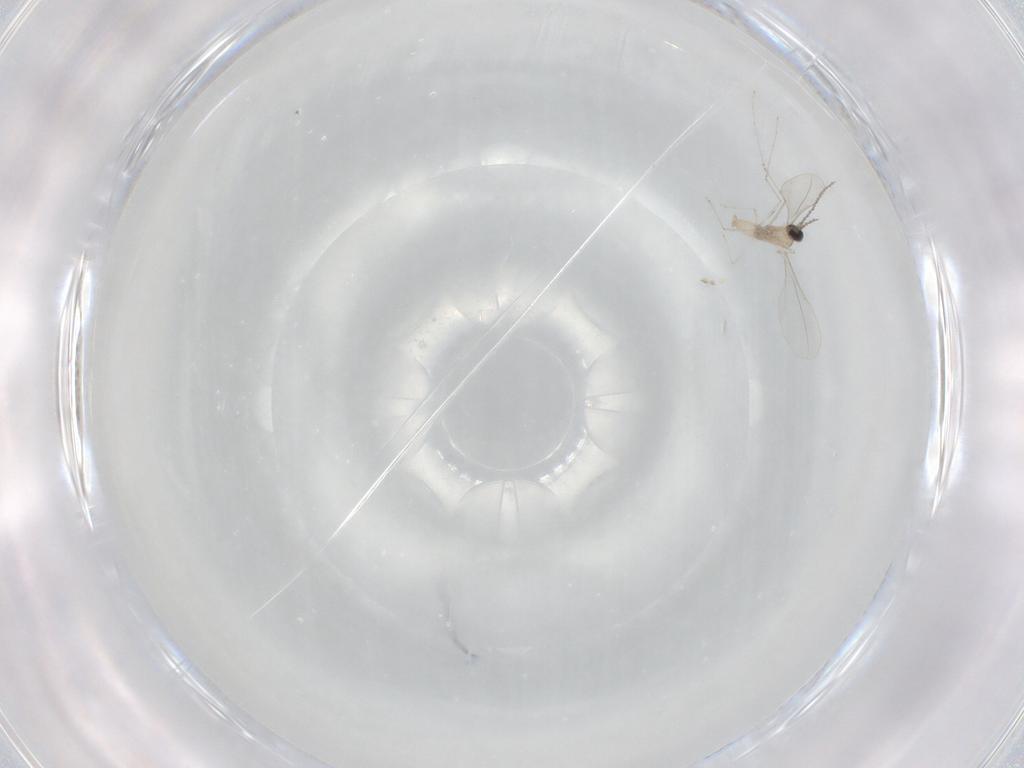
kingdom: Animalia
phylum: Arthropoda
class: Insecta
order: Diptera
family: Cecidomyiidae
